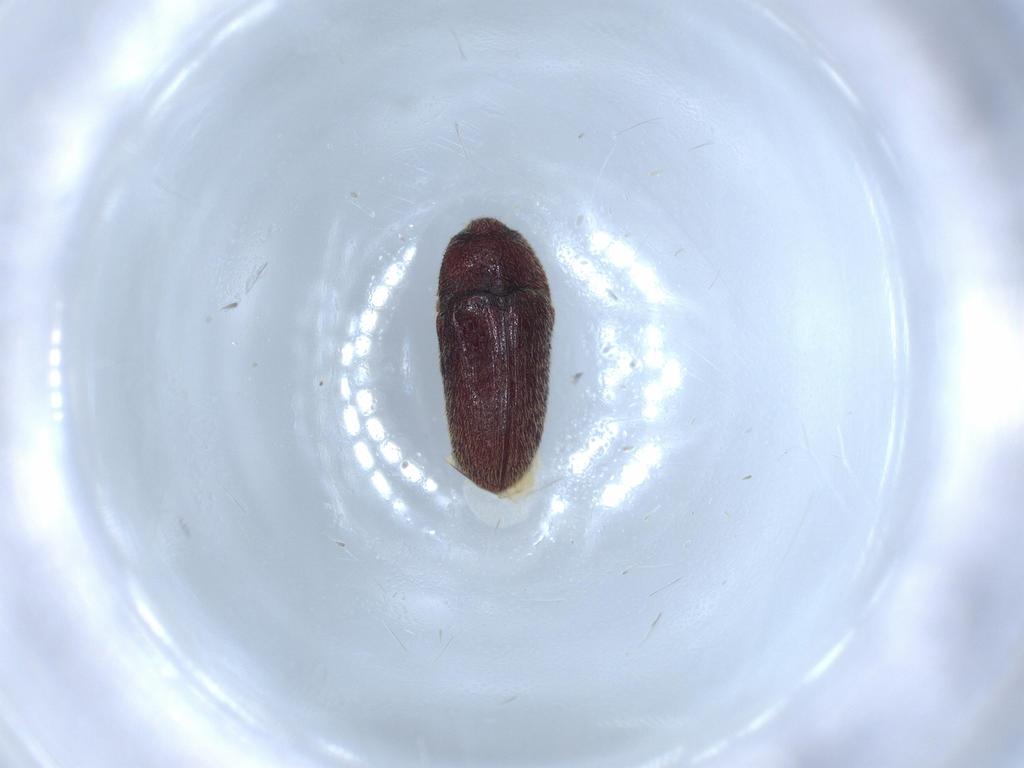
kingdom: Animalia
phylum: Arthropoda
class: Insecta
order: Coleoptera
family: Throscidae
